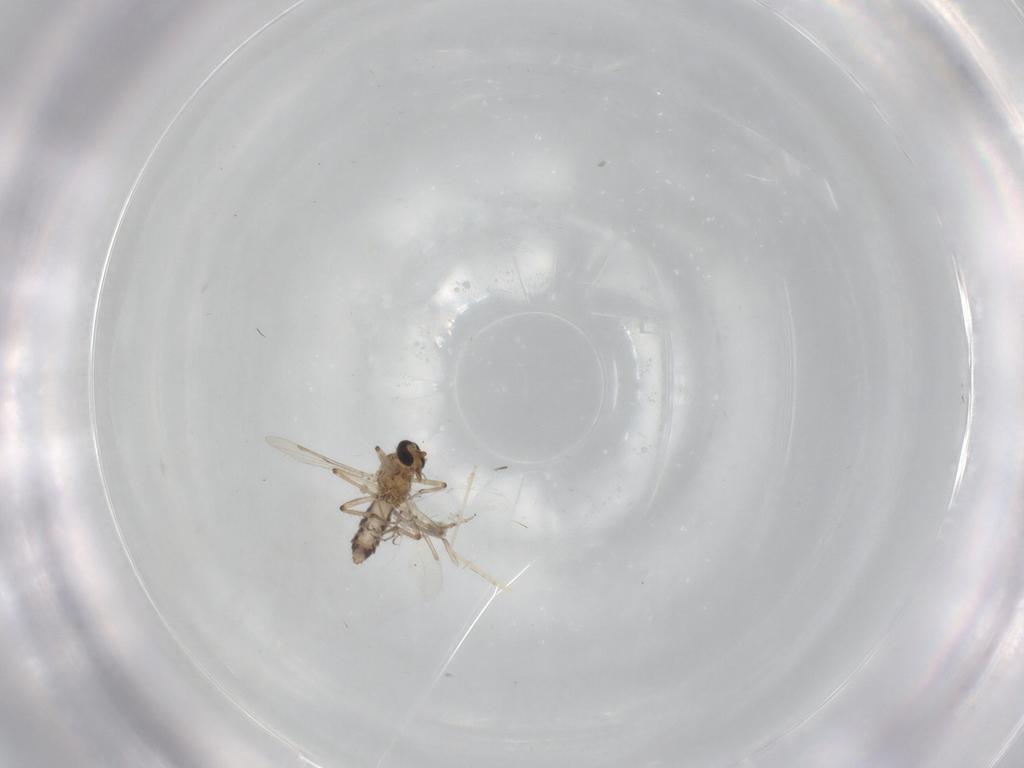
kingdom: Animalia
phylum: Arthropoda
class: Insecta
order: Diptera
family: Ceratopogonidae
